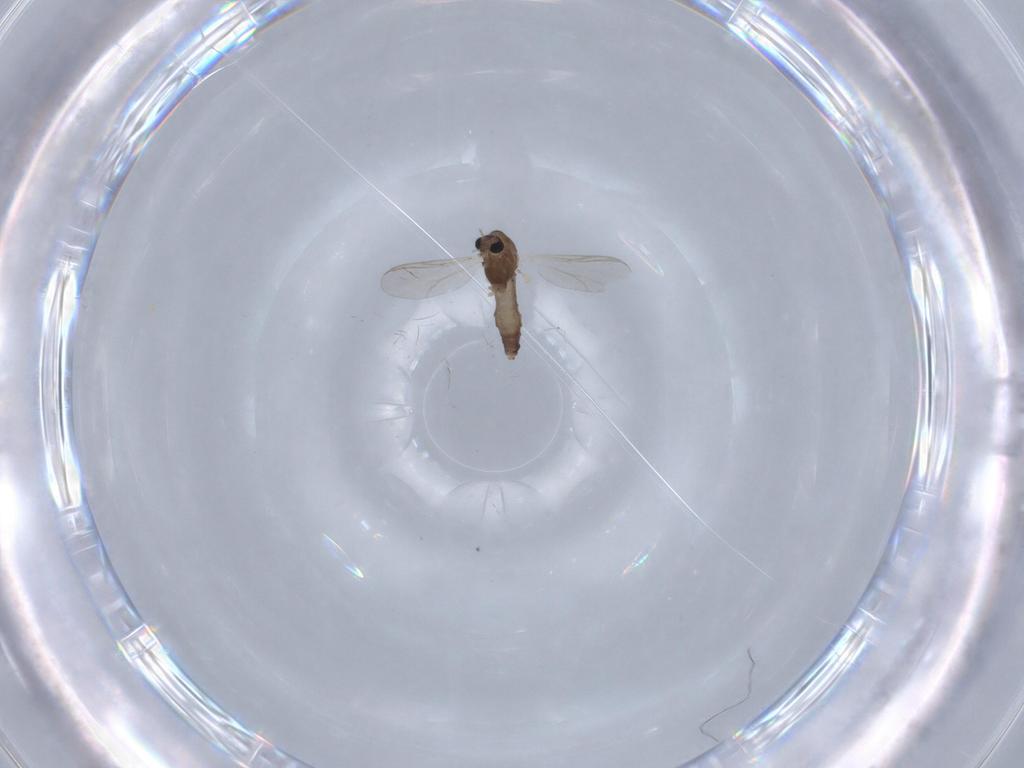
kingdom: Animalia
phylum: Arthropoda
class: Insecta
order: Diptera
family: Chironomidae
